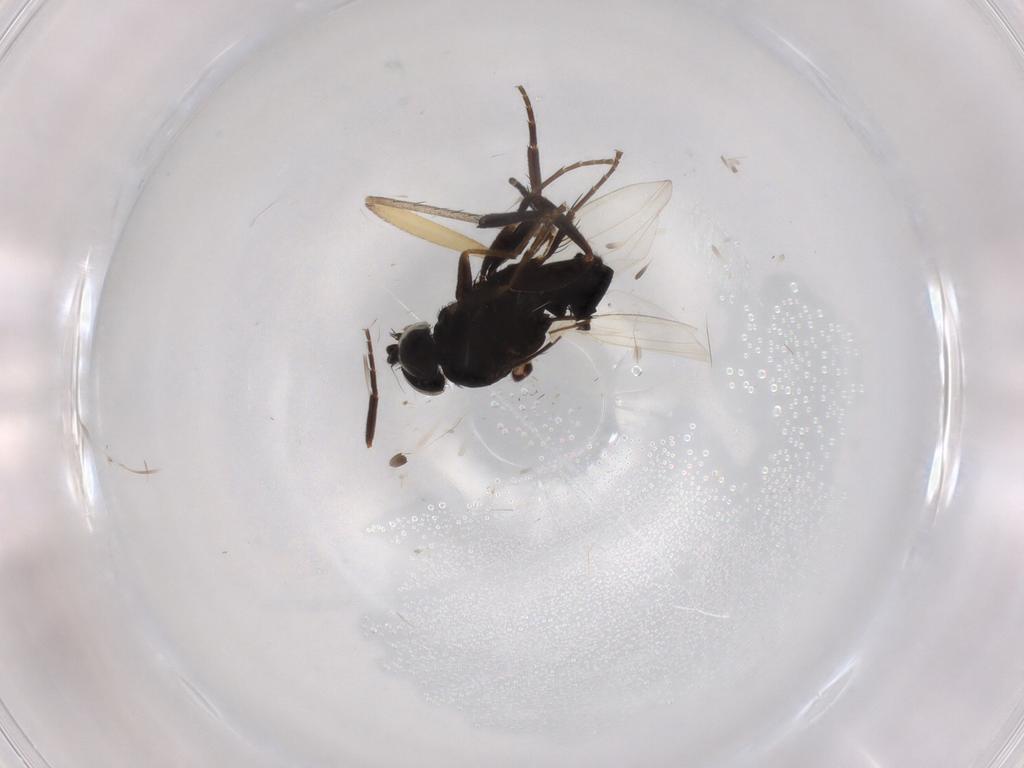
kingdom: Animalia
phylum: Arthropoda
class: Insecta
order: Diptera
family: Phoridae
